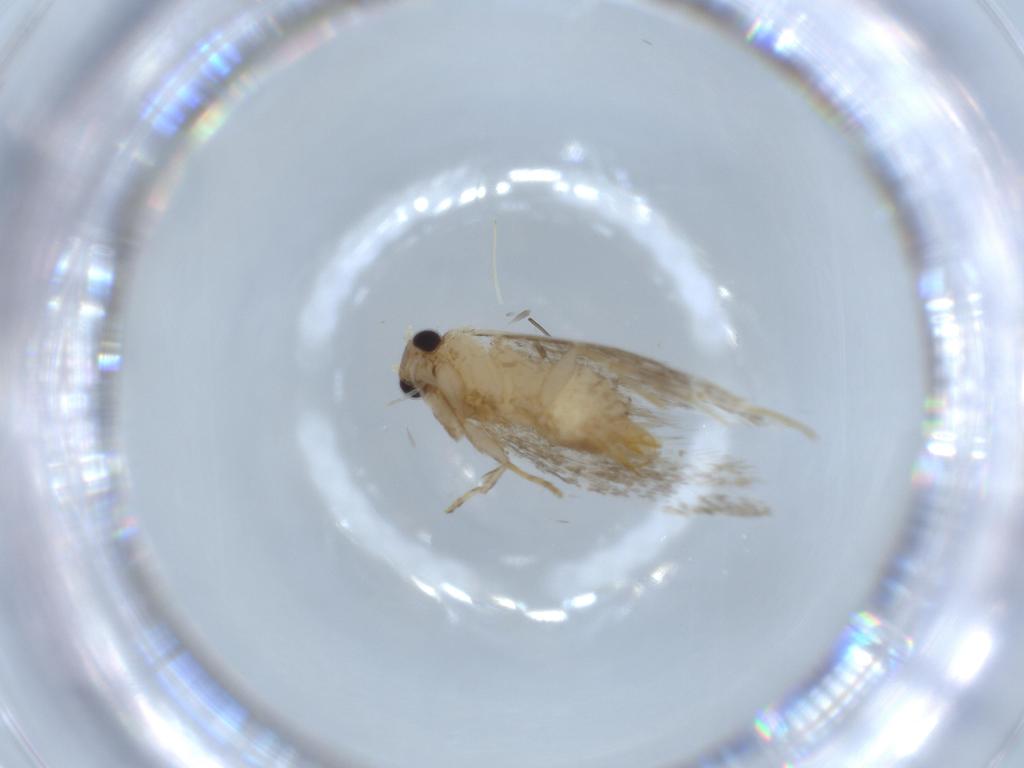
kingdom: Animalia
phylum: Arthropoda
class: Insecta
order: Lepidoptera
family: Tineidae
